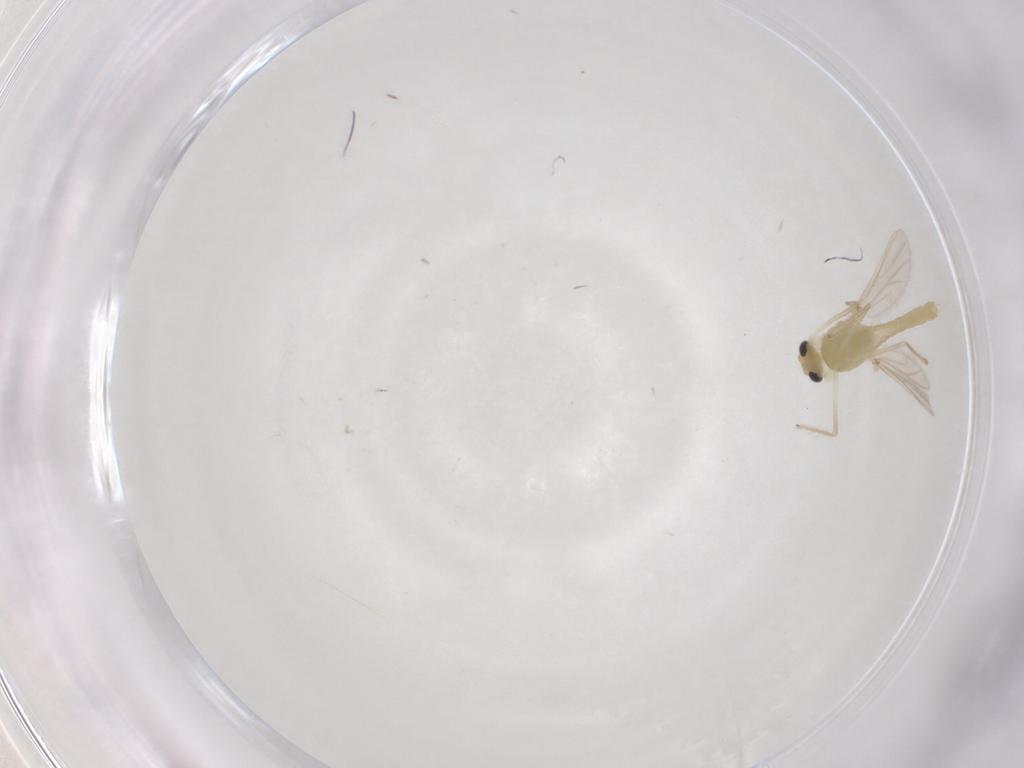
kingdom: Animalia
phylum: Arthropoda
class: Insecta
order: Diptera
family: Chironomidae
